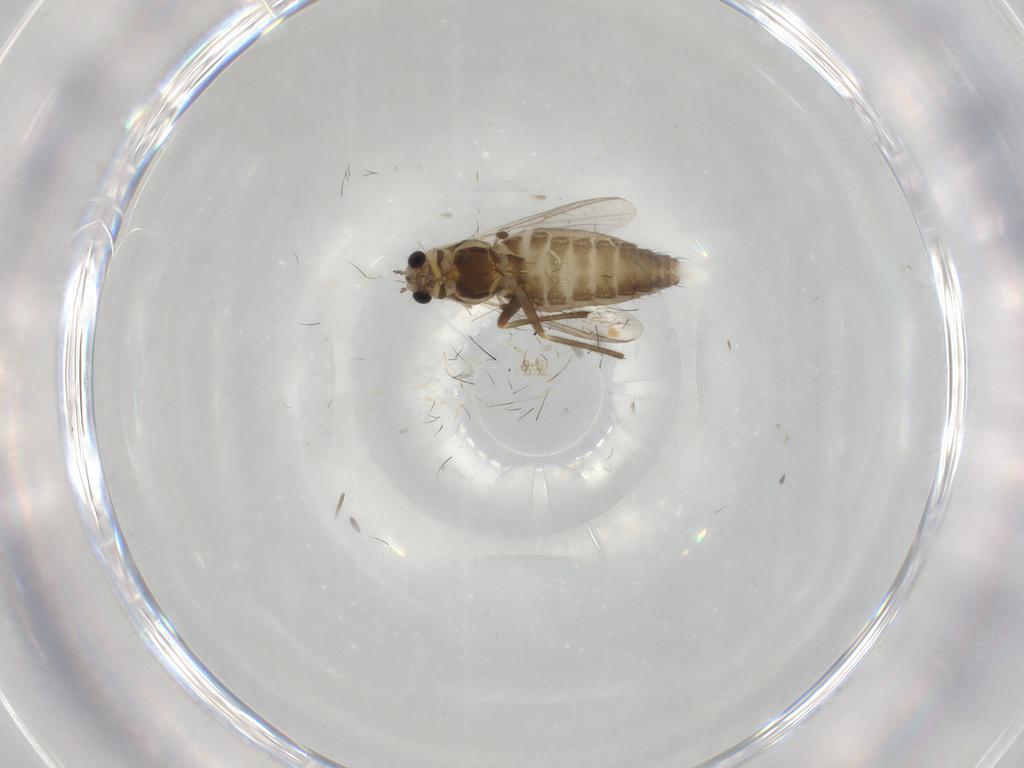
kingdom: Animalia
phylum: Arthropoda
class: Insecta
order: Diptera
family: Chironomidae
